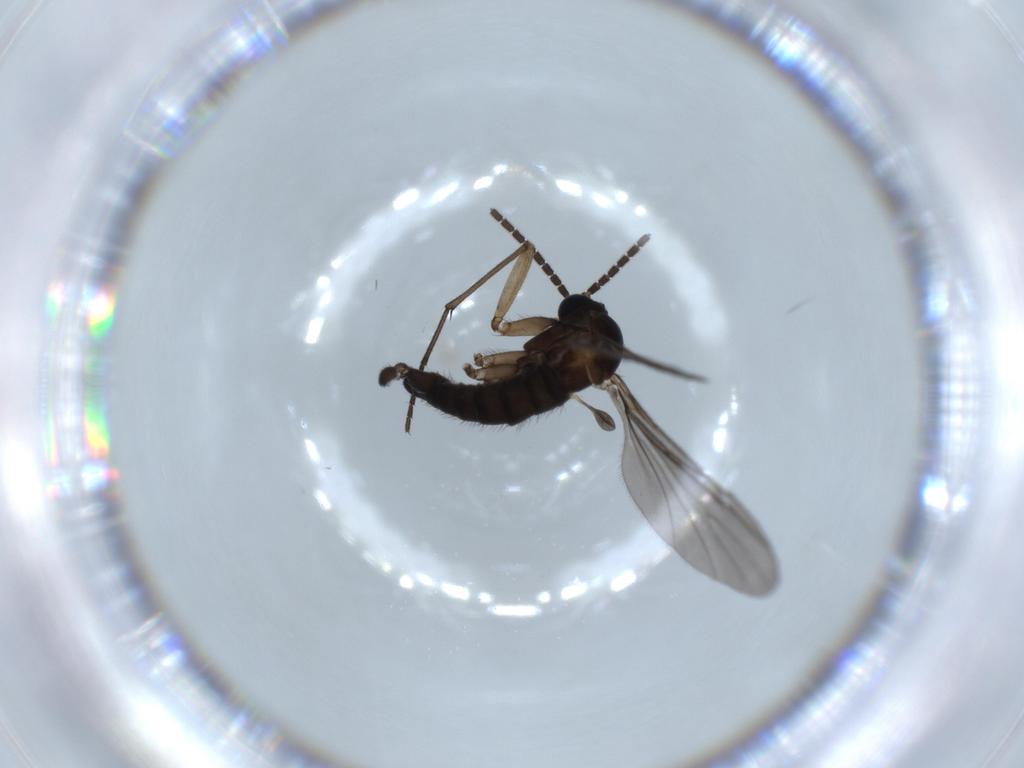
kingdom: Animalia
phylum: Arthropoda
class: Insecta
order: Diptera
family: Sciaridae
